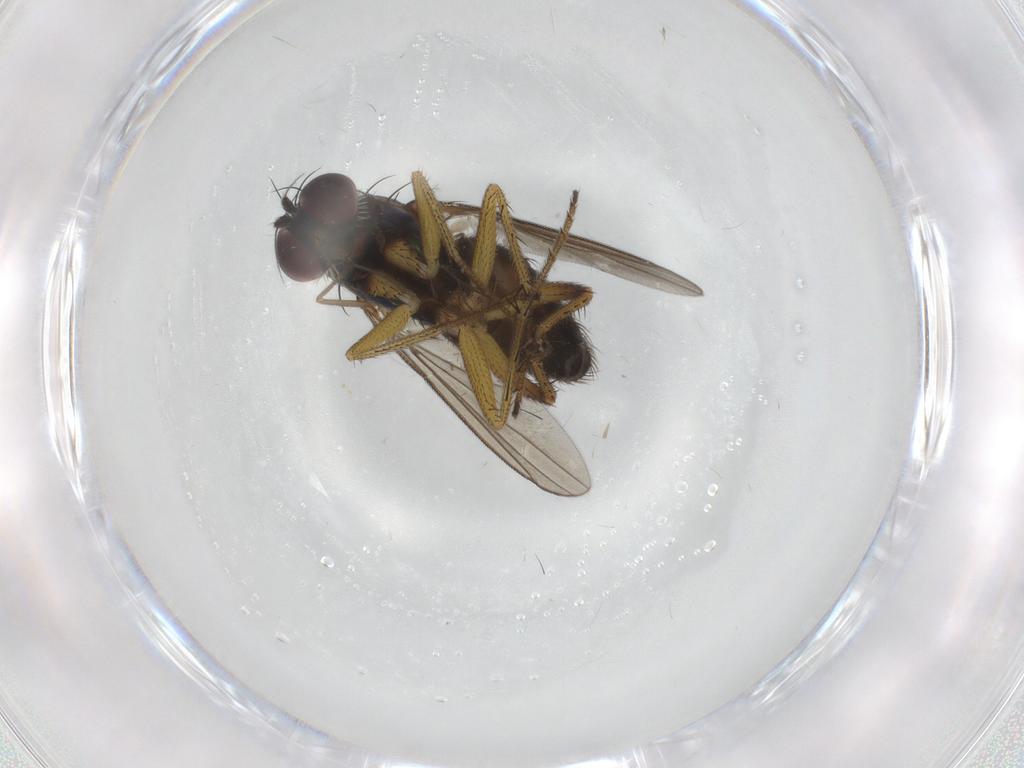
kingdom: Animalia
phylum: Arthropoda
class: Insecta
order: Diptera
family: Dolichopodidae
